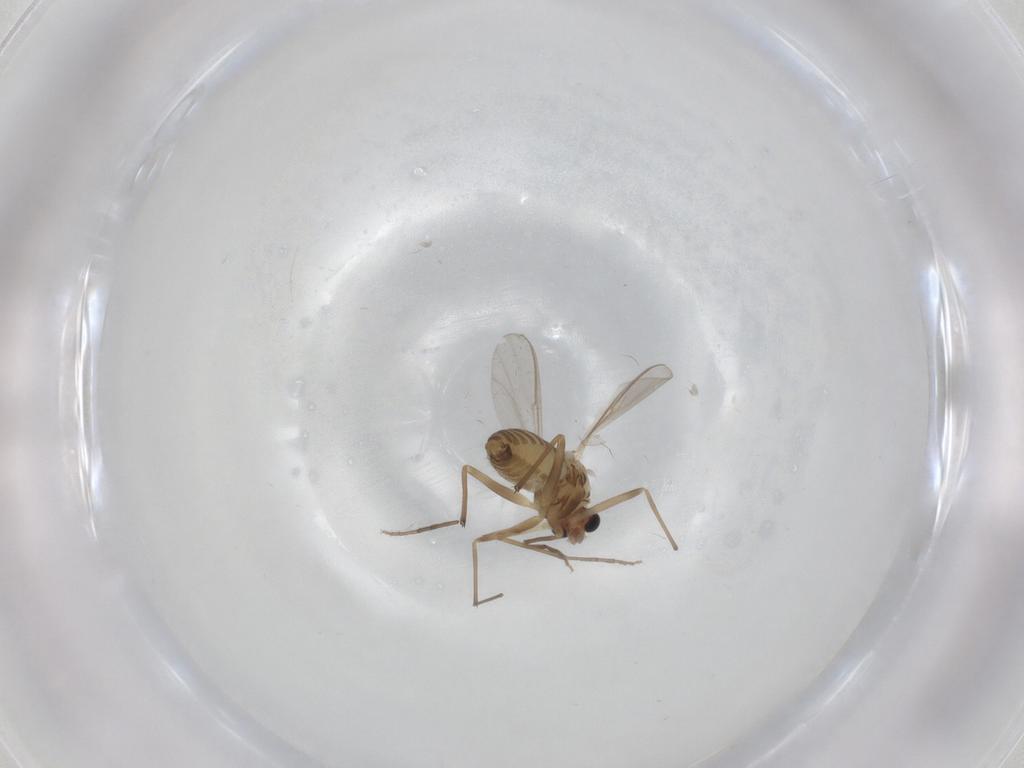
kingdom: Animalia
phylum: Arthropoda
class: Insecta
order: Diptera
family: Chironomidae
